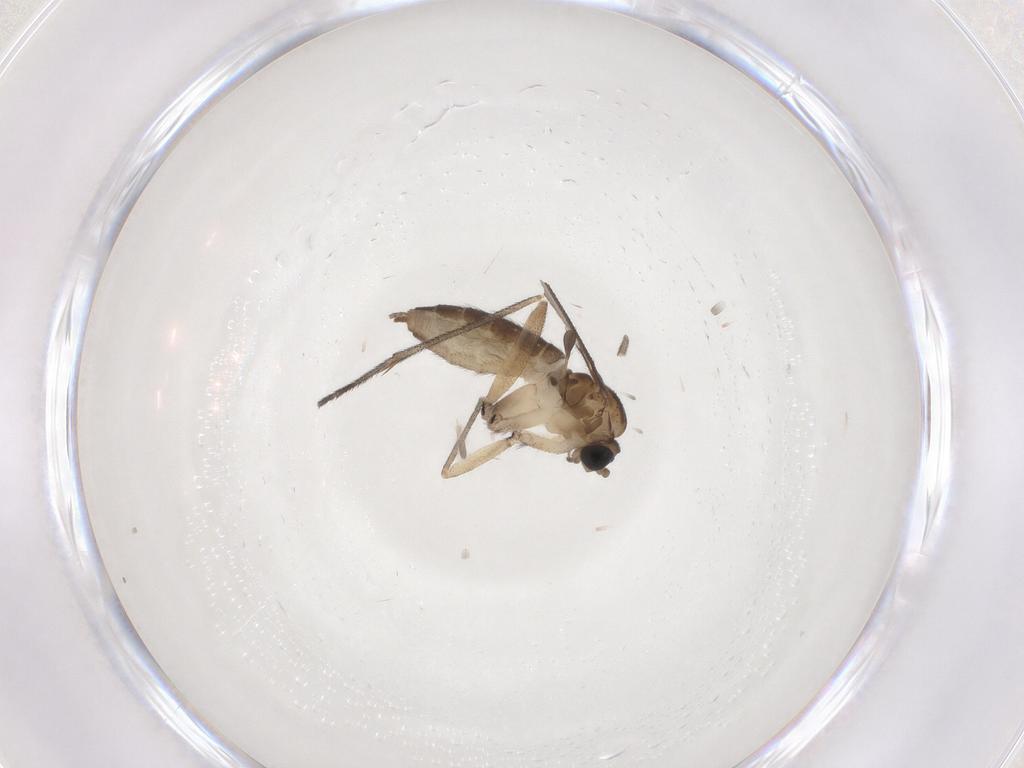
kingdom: Animalia
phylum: Arthropoda
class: Insecta
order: Diptera
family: Sciaridae
